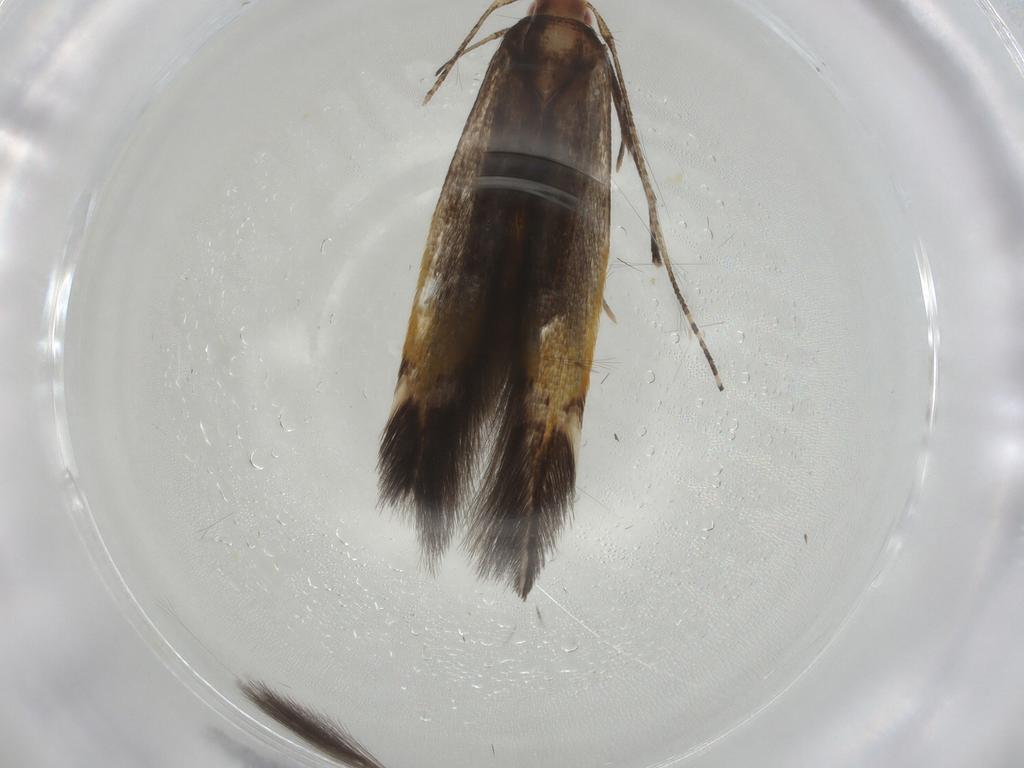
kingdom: Animalia
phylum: Arthropoda
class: Insecta
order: Lepidoptera
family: Cosmopterigidae
